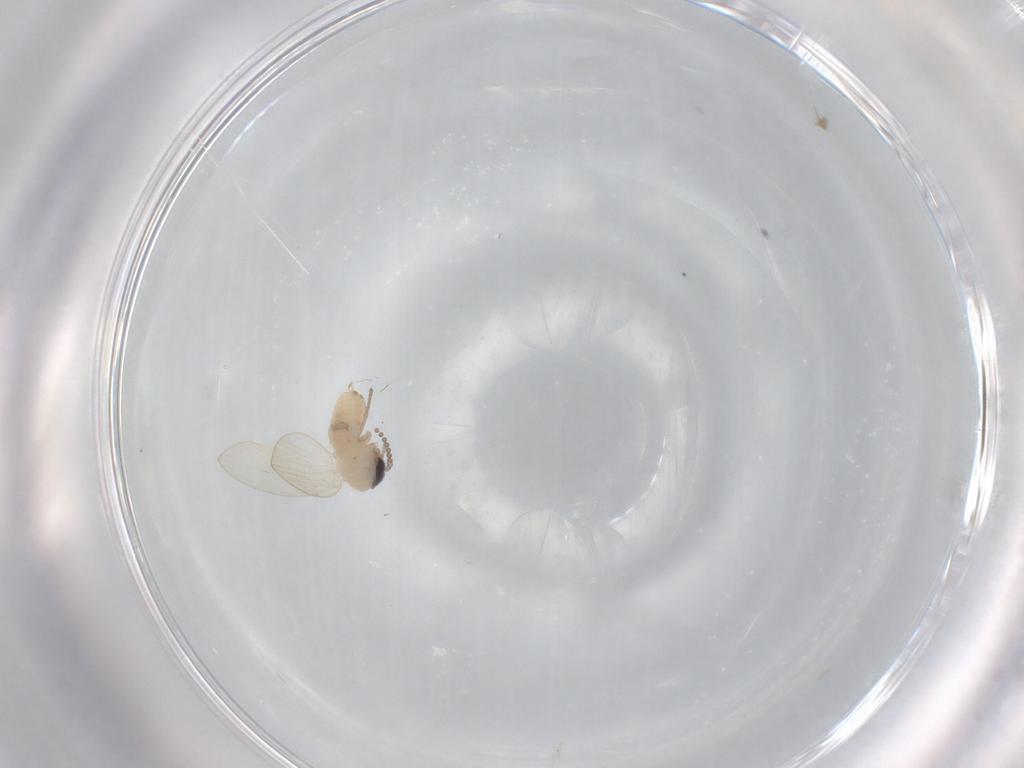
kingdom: Animalia
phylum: Arthropoda
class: Insecta
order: Diptera
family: Psychodidae
